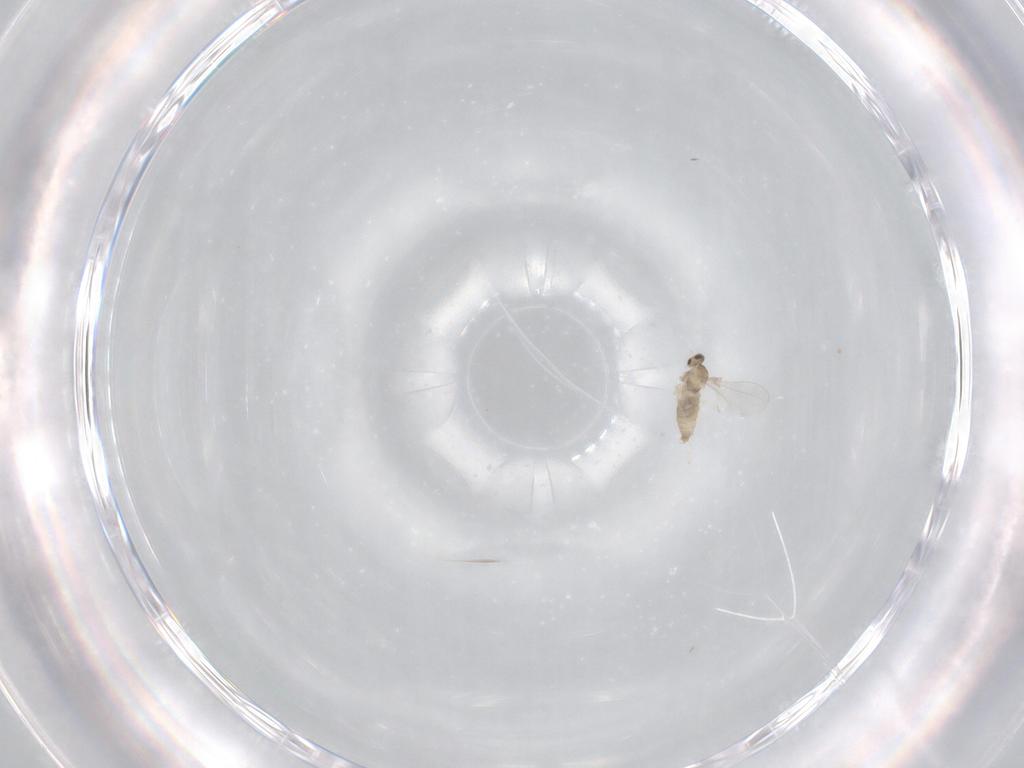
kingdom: Animalia
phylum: Arthropoda
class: Insecta
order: Diptera
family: Cecidomyiidae
